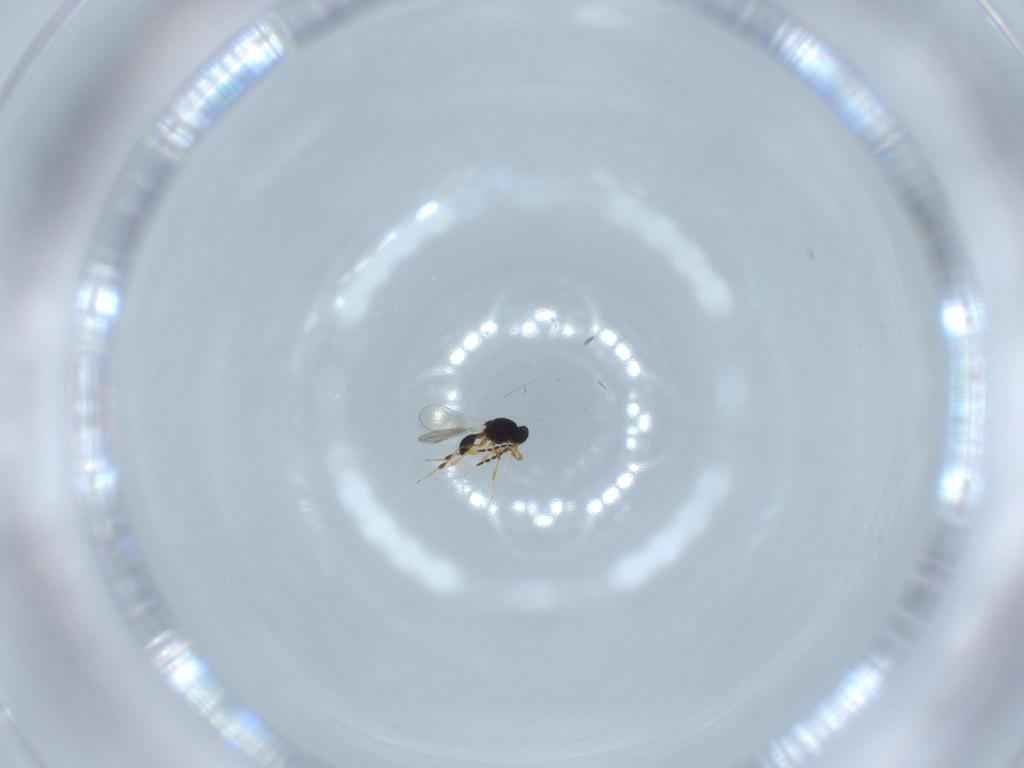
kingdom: Animalia
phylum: Arthropoda
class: Insecta
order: Hymenoptera
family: Platygastridae
